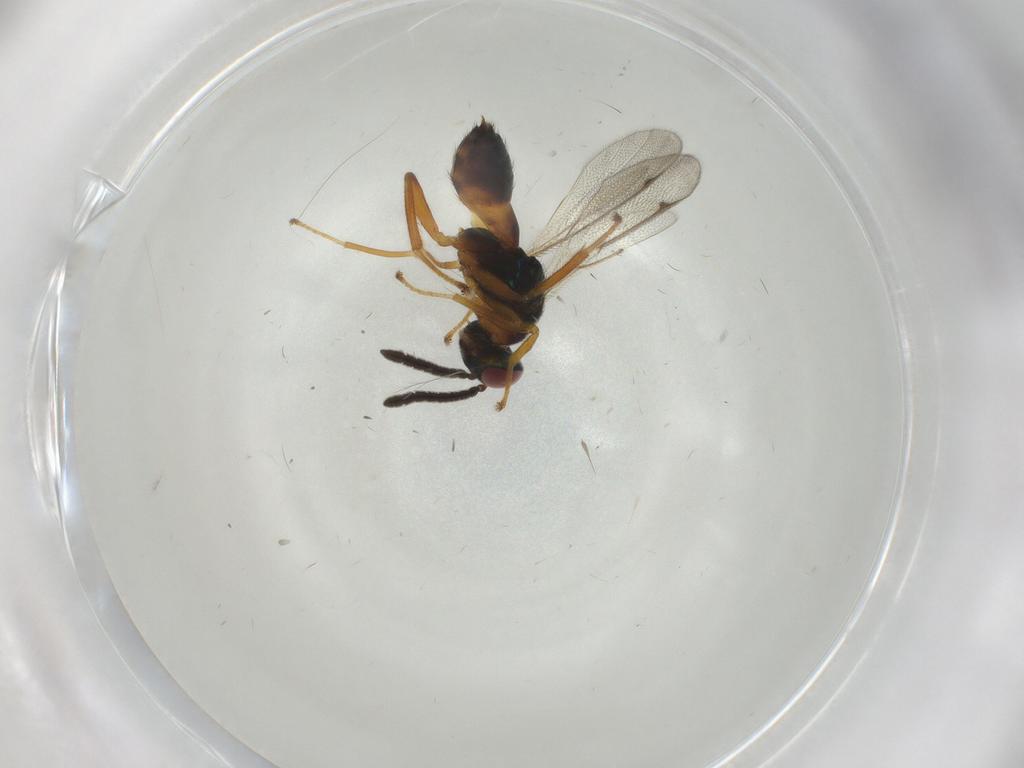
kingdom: Animalia
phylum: Arthropoda
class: Insecta
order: Hymenoptera
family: Torymidae
